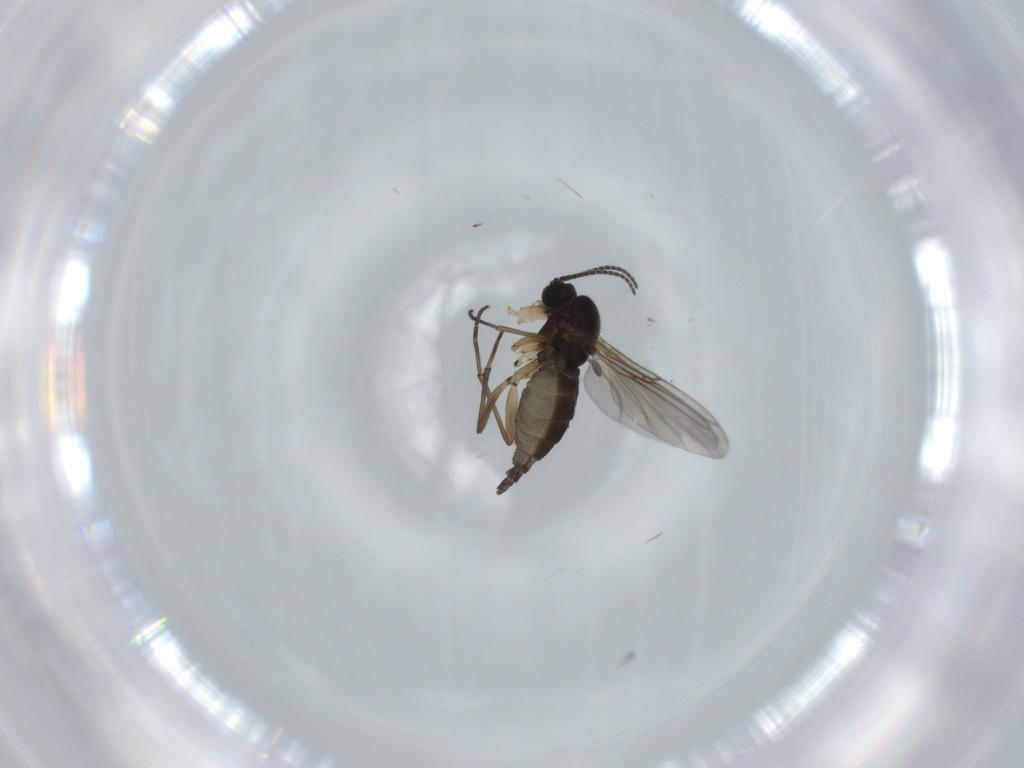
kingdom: Animalia
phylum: Arthropoda
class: Insecta
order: Diptera
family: Sciaridae
